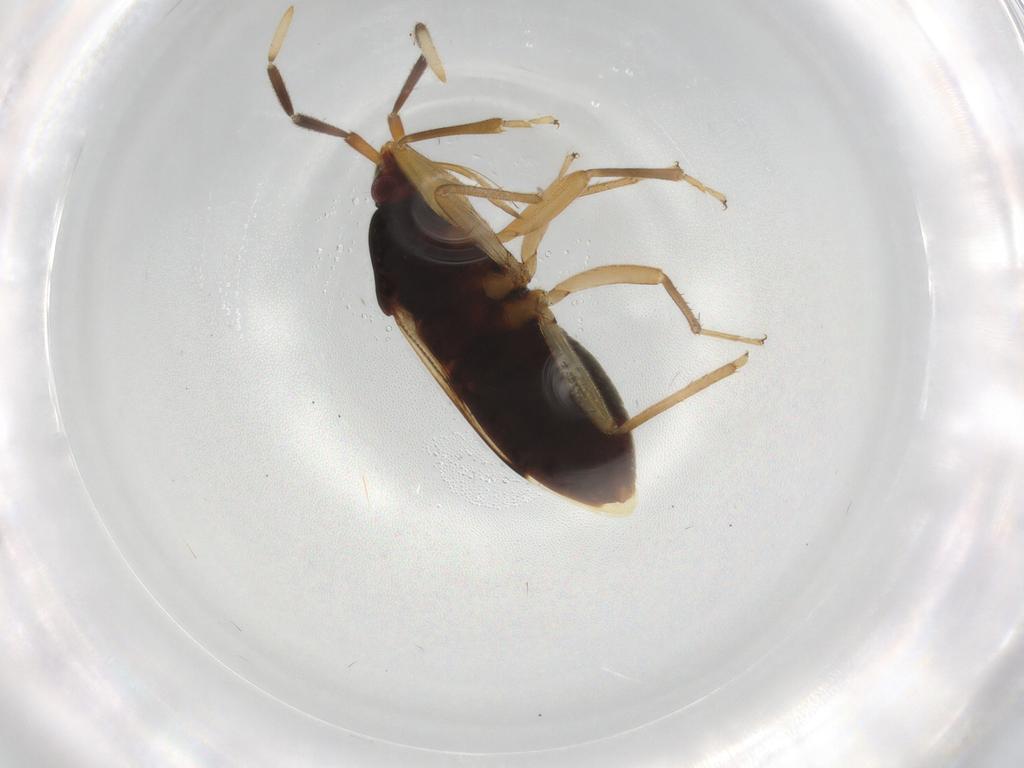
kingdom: Animalia
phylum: Arthropoda
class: Insecta
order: Hemiptera
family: Rhyparochromidae
